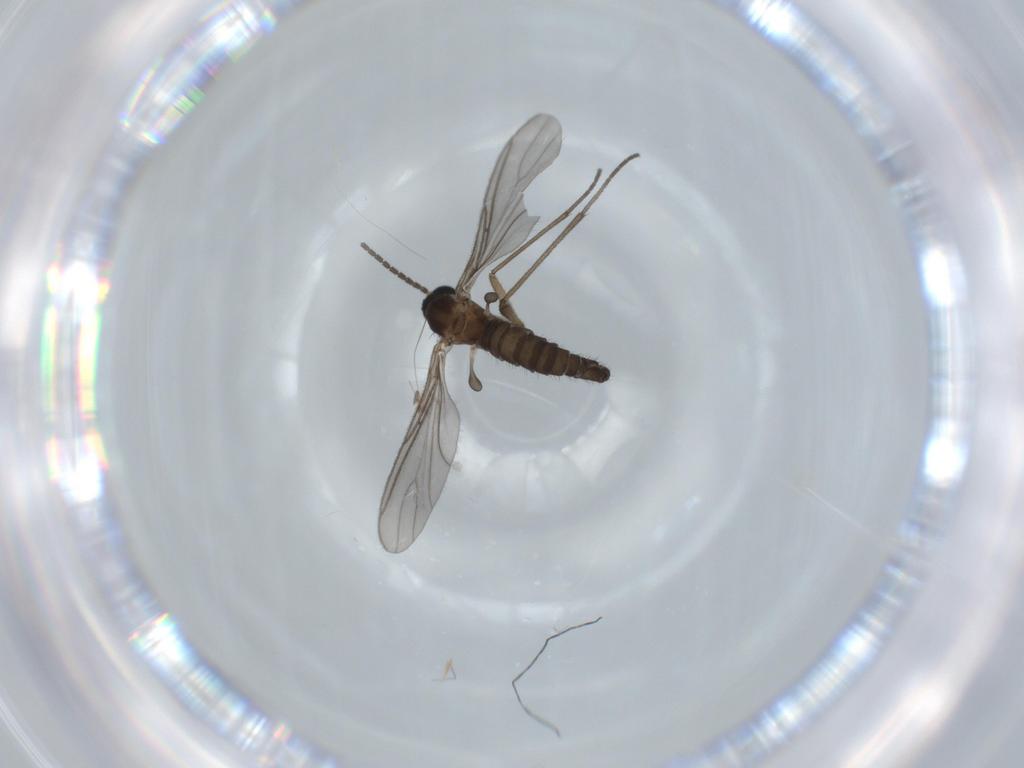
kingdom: Animalia
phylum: Arthropoda
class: Insecta
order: Diptera
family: Sciaridae
